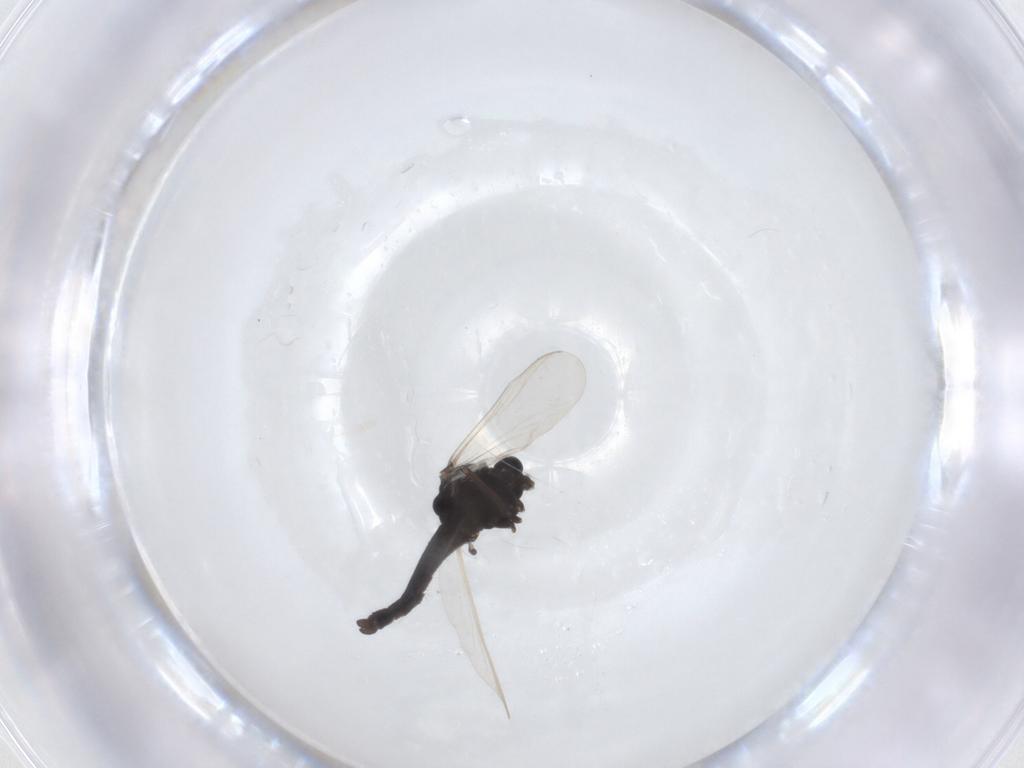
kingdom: Animalia
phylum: Arthropoda
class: Insecta
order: Diptera
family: Chironomidae
